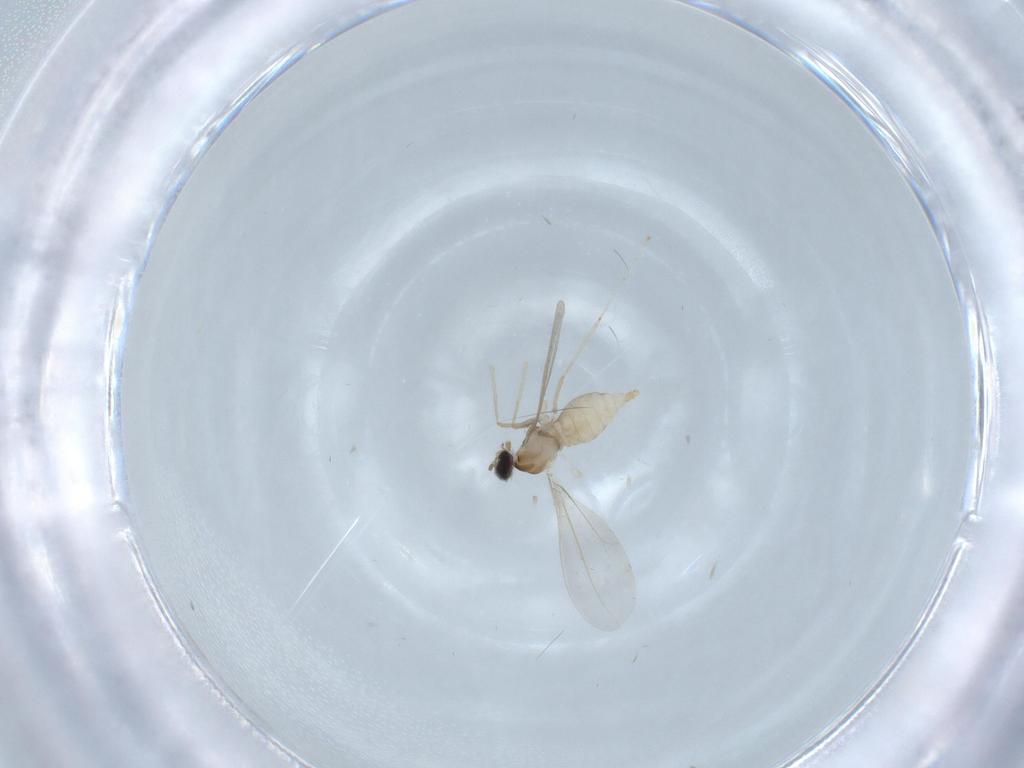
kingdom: Animalia
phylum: Arthropoda
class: Insecta
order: Diptera
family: Cecidomyiidae
